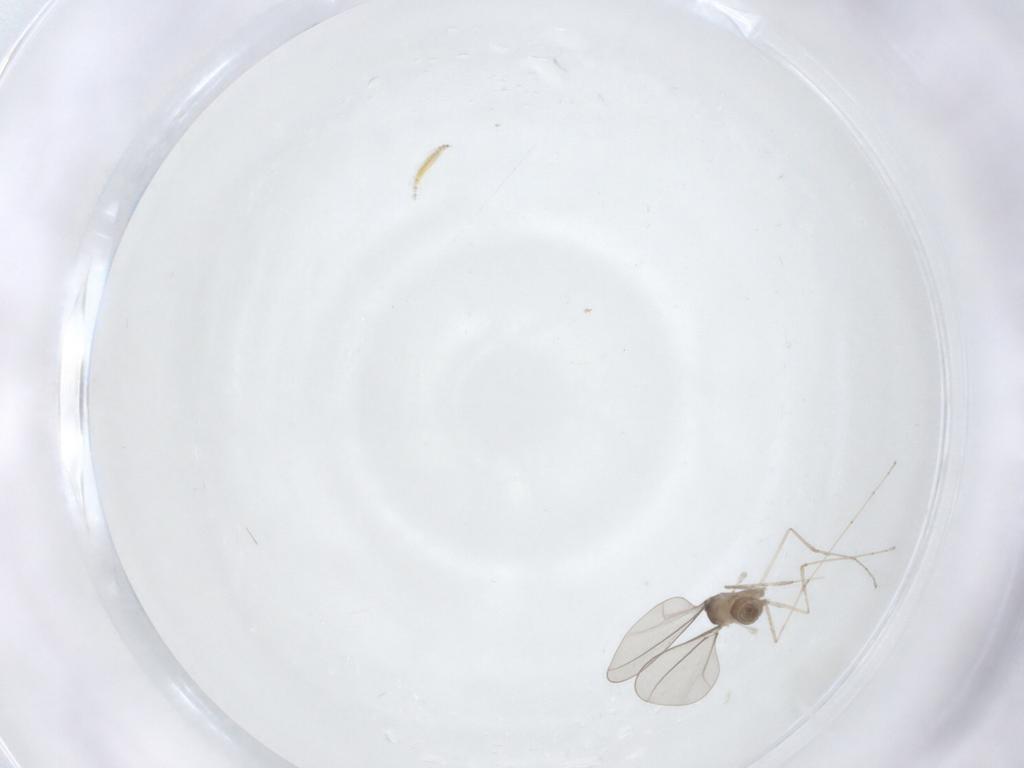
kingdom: Animalia
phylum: Arthropoda
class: Insecta
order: Diptera
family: Ceratopogonidae
